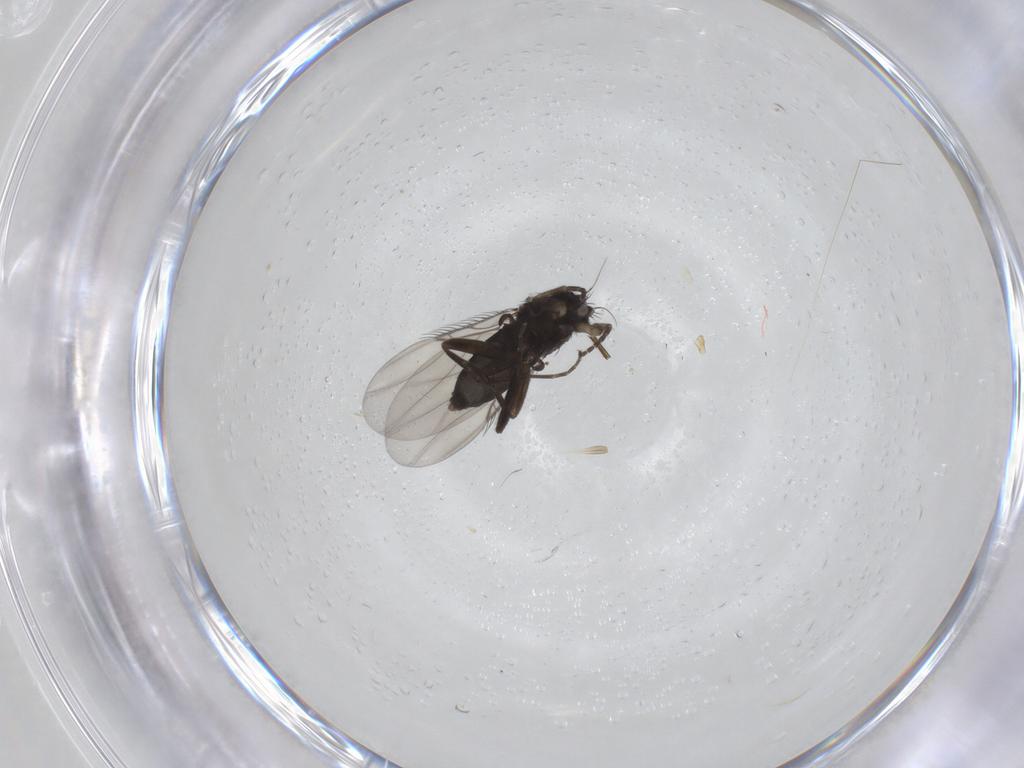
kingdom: Animalia
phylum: Arthropoda
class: Insecta
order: Diptera
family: Phoridae
